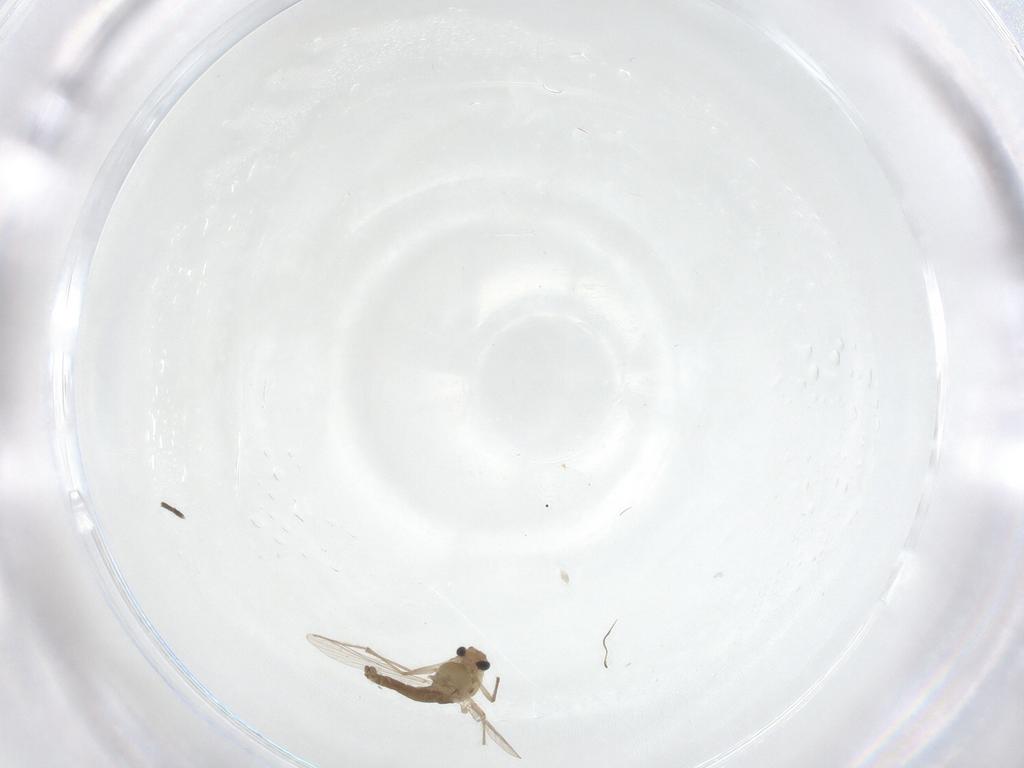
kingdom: Animalia
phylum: Arthropoda
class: Insecta
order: Diptera
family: Chironomidae
